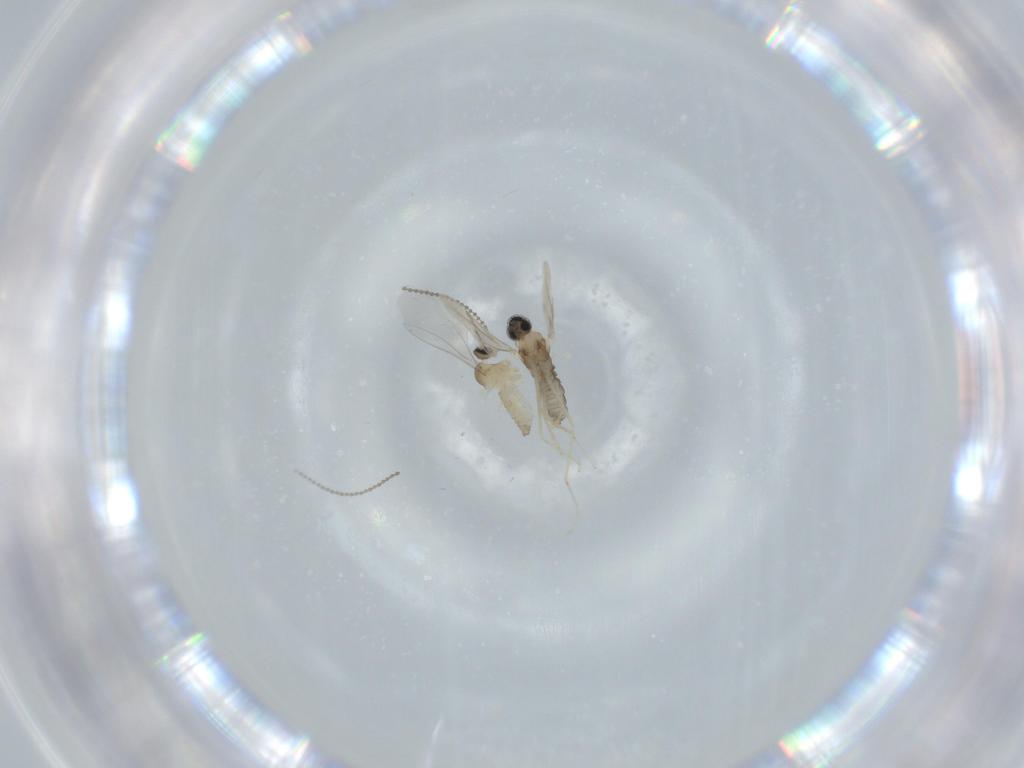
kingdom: Animalia
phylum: Arthropoda
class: Insecta
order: Diptera
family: Cecidomyiidae
